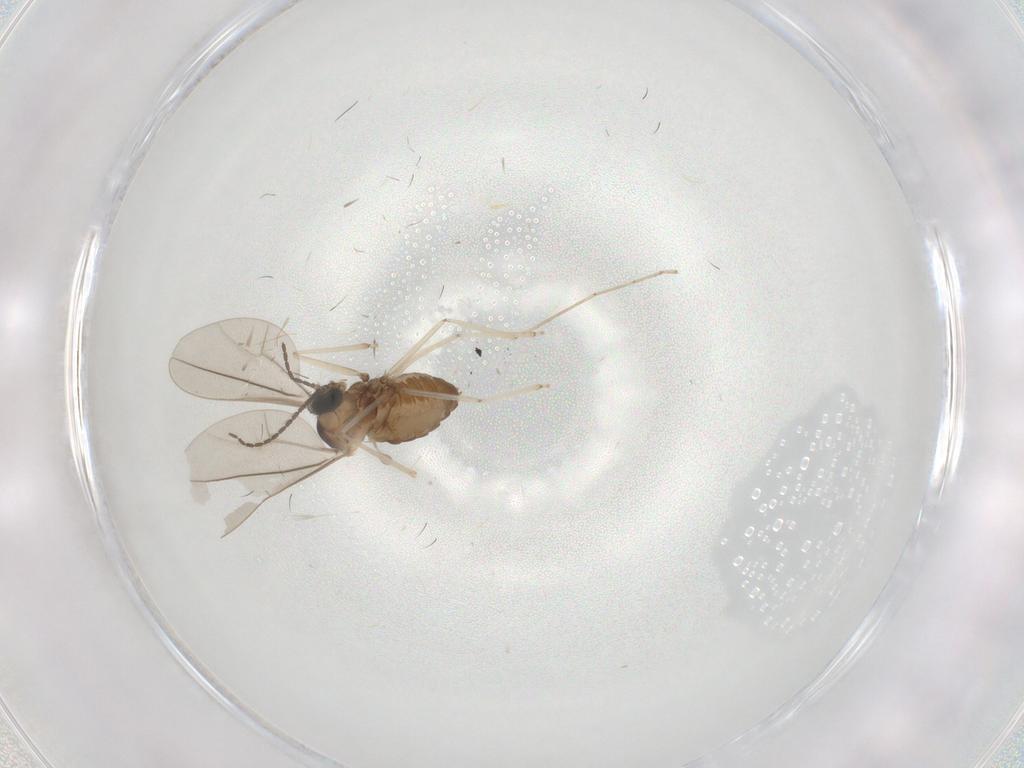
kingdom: Animalia
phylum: Arthropoda
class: Insecta
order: Diptera
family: Cecidomyiidae
